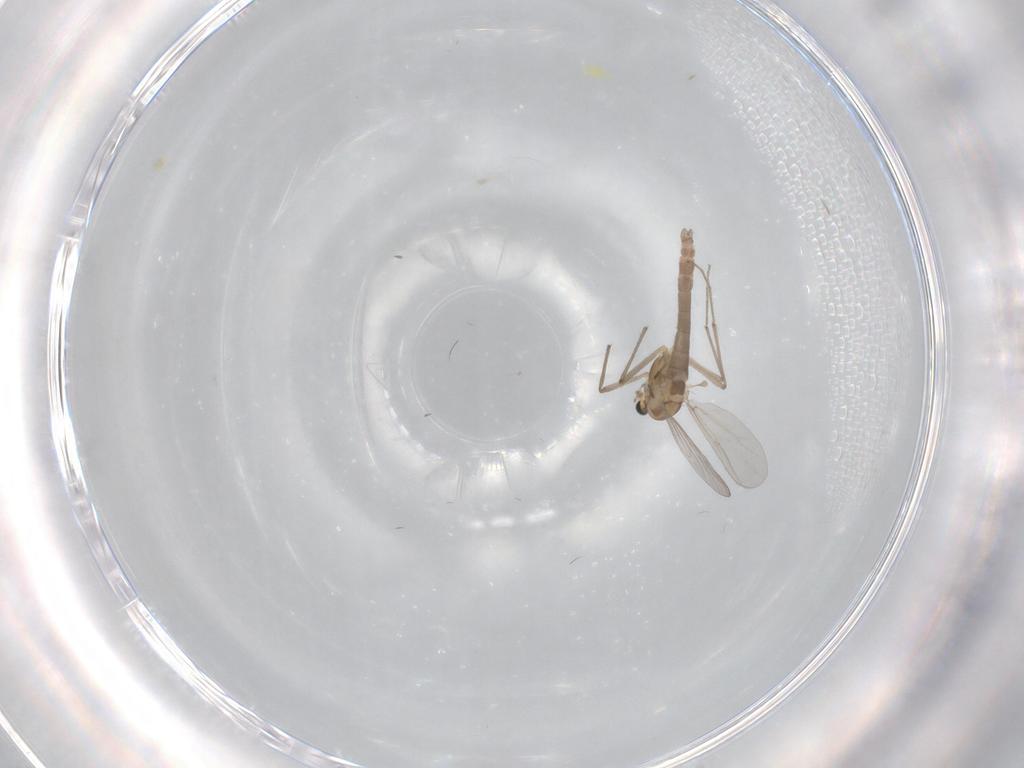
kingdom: Animalia
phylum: Arthropoda
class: Insecta
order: Diptera
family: Chironomidae
